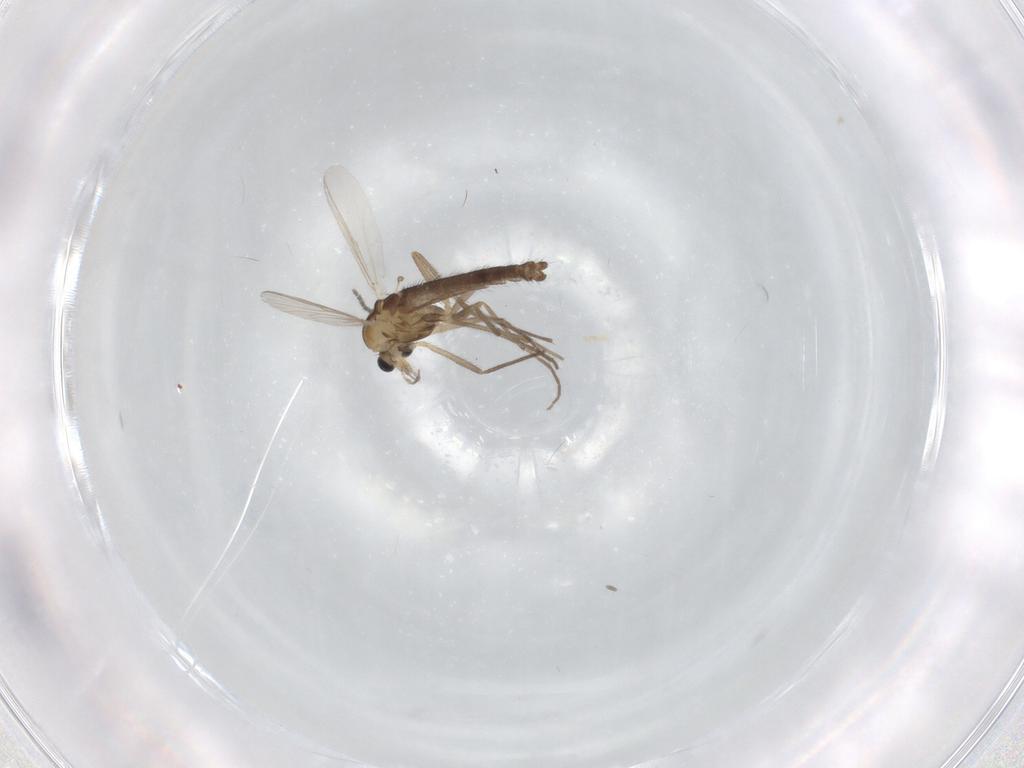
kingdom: Animalia
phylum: Arthropoda
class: Insecta
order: Diptera
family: Chironomidae
